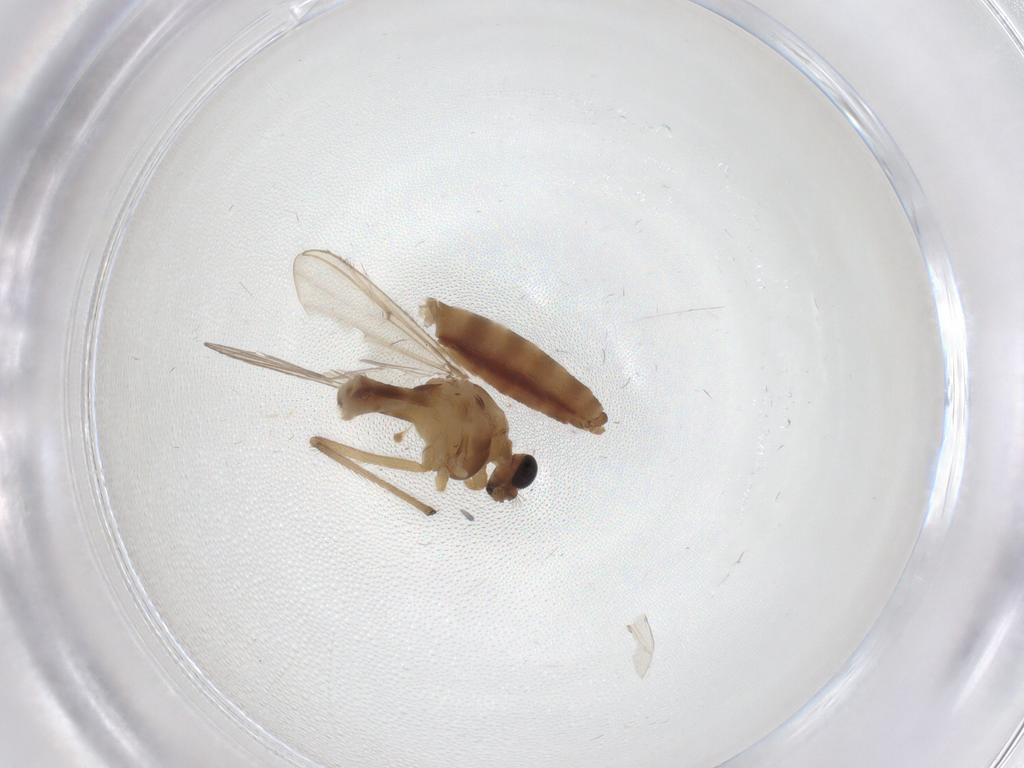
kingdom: Animalia
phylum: Arthropoda
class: Insecta
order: Diptera
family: Chironomidae
